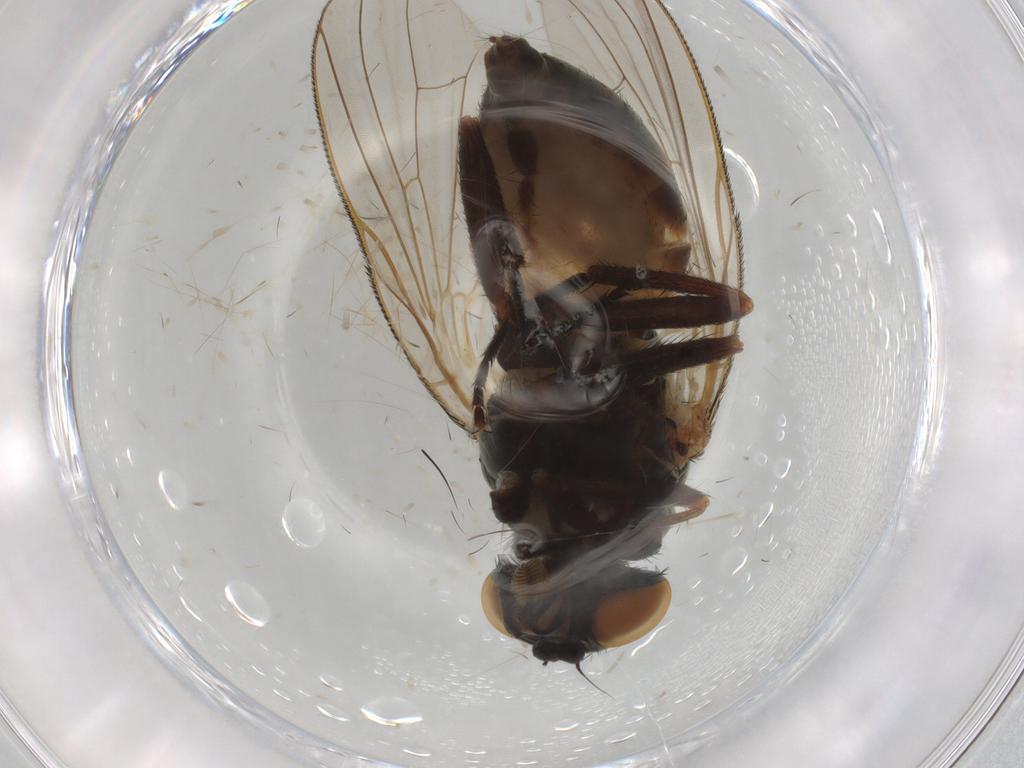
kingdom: Animalia
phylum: Arthropoda
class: Insecta
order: Diptera
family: Fannia
